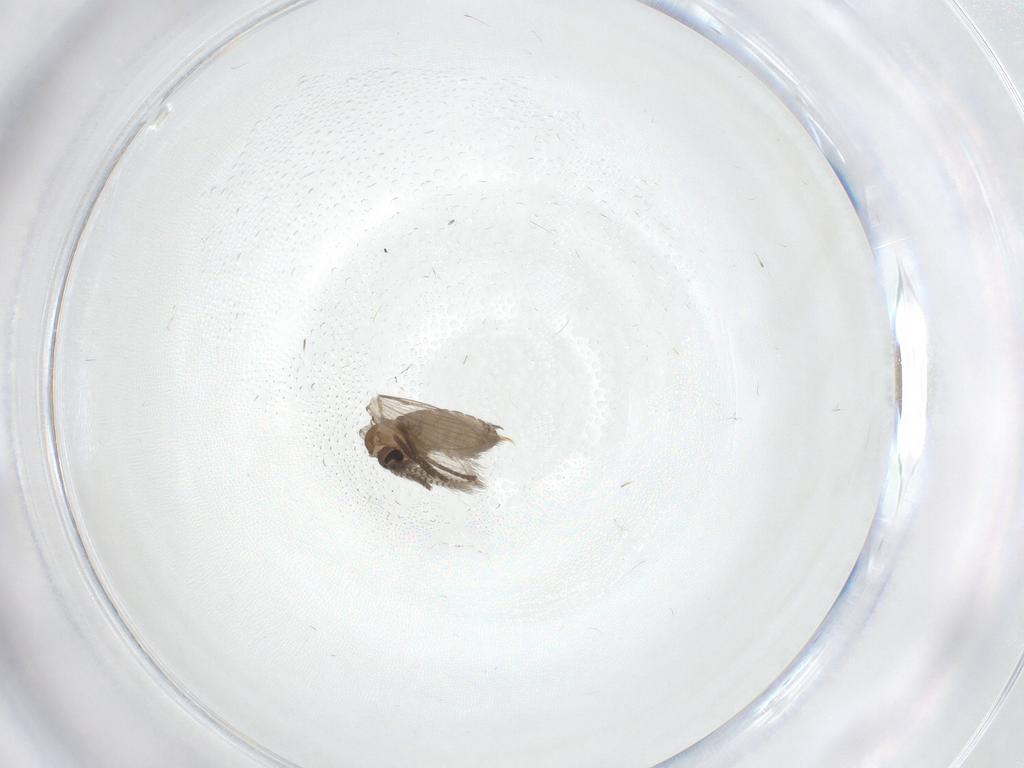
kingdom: Animalia
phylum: Arthropoda
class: Insecta
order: Diptera
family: Psychodidae
